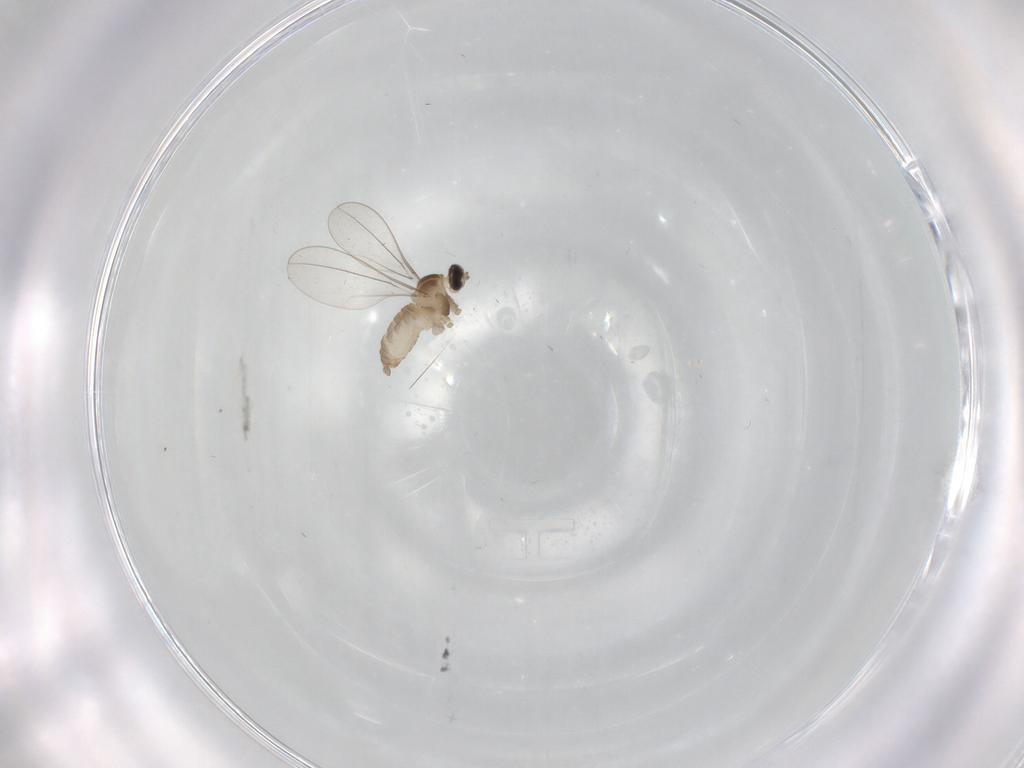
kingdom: Animalia
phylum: Arthropoda
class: Insecta
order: Diptera
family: Cecidomyiidae
